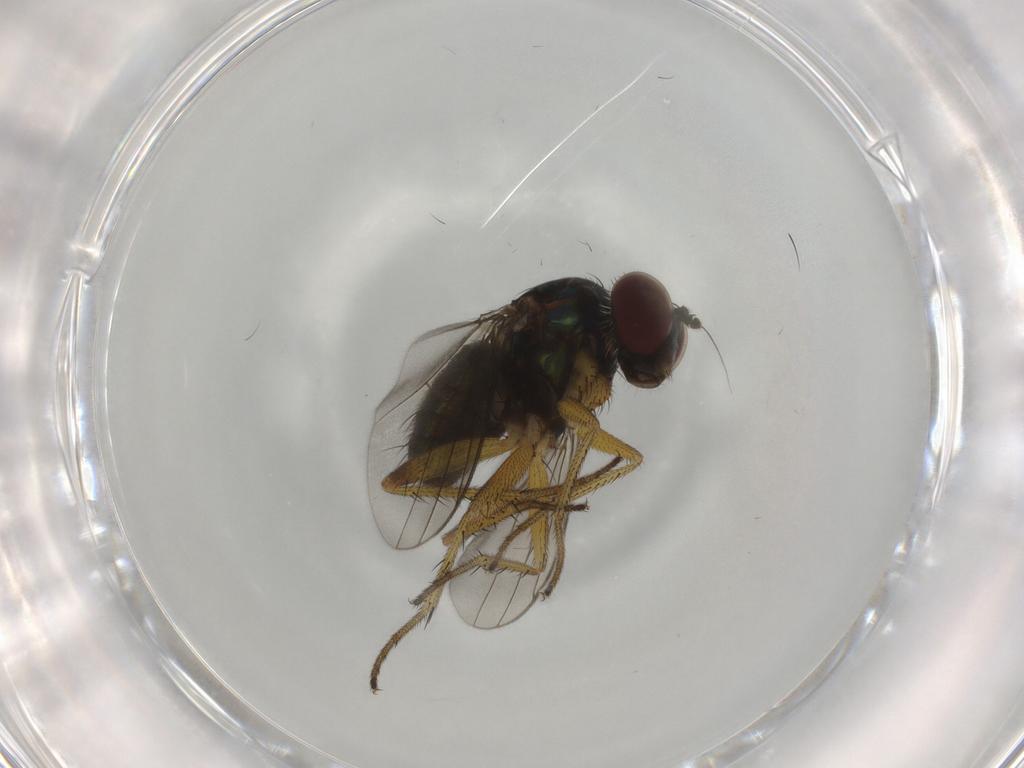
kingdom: Animalia
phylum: Arthropoda
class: Insecta
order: Diptera
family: Dolichopodidae
